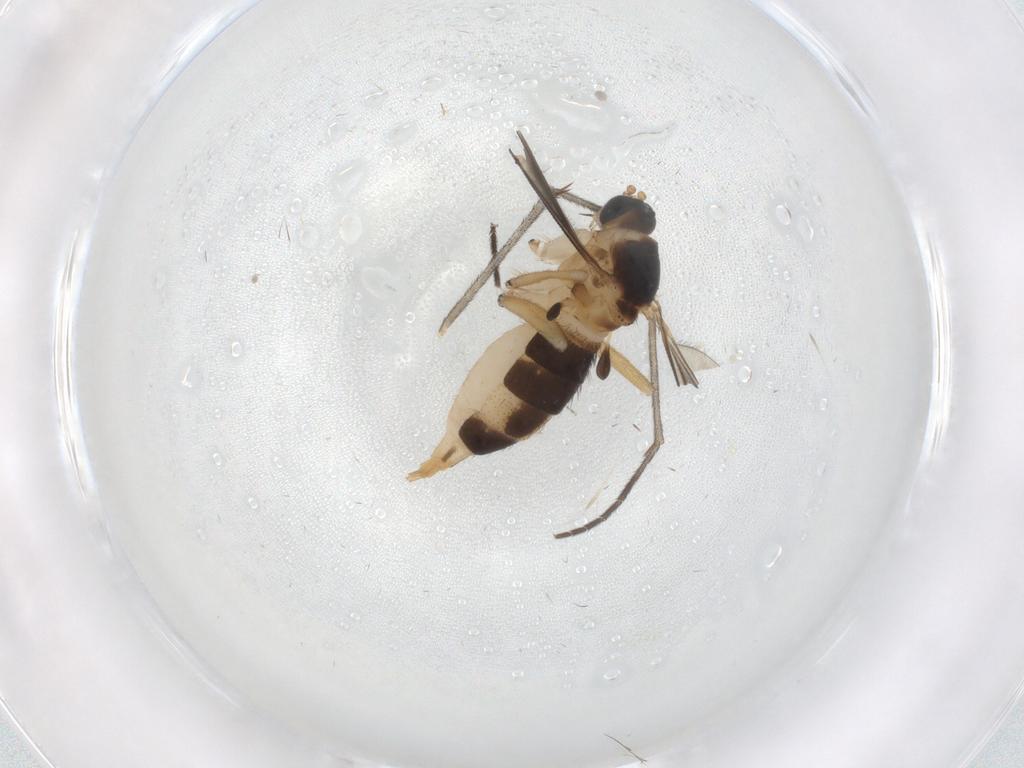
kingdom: Animalia
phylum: Arthropoda
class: Insecta
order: Diptera
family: Sciaridae
